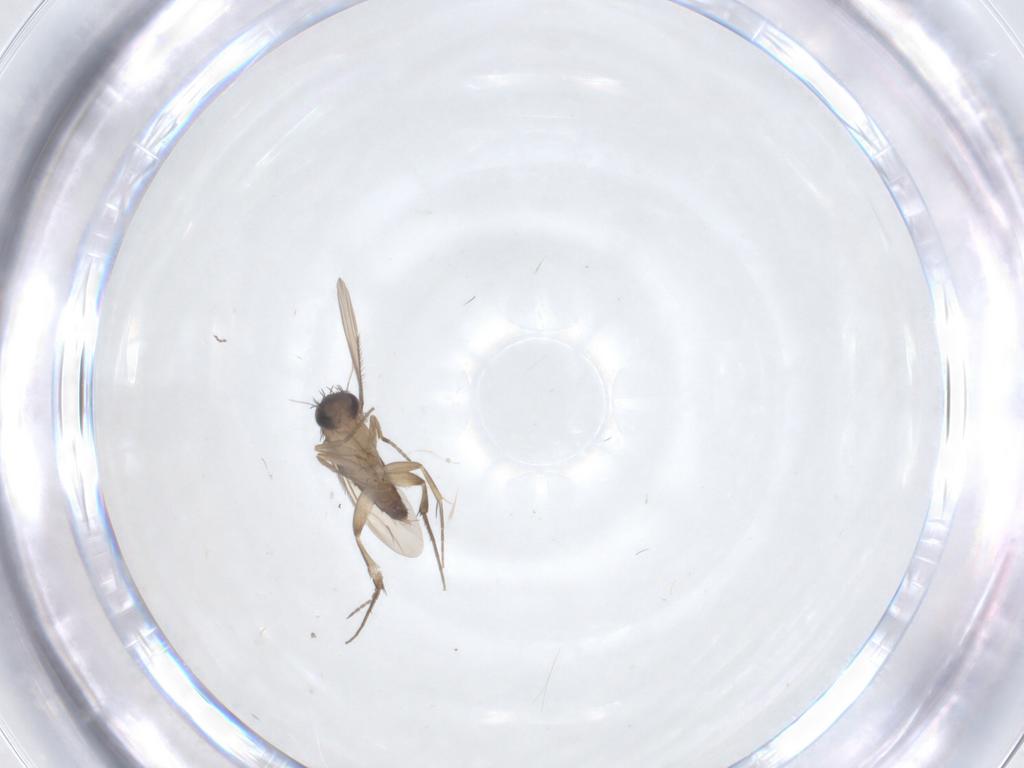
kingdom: Animalia
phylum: Arthropoda
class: Insecta
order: Diptera
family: Phoridae
